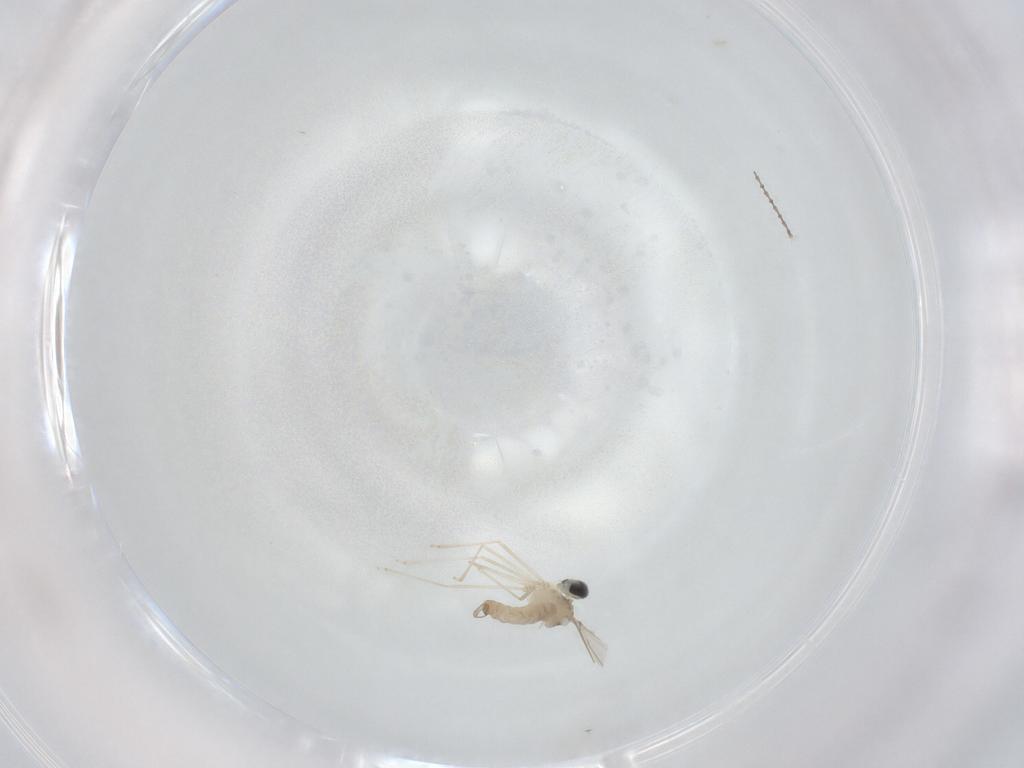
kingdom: Animalia
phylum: Arthropoda
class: Insecta
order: Diptera
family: Cecidomyiidae
